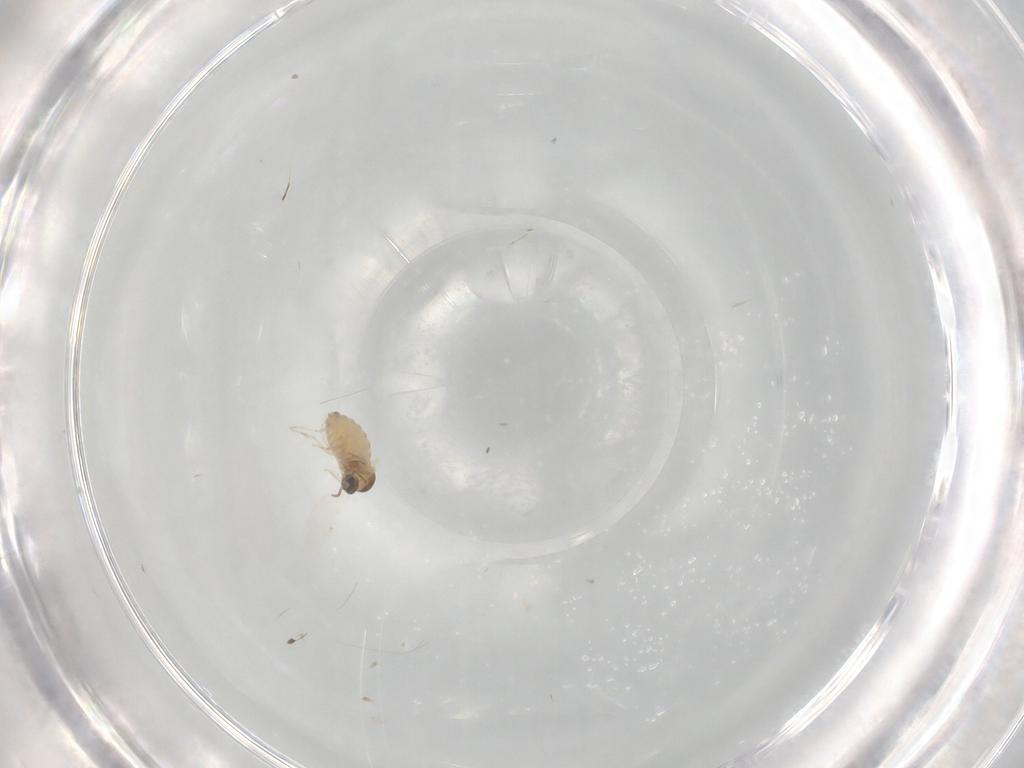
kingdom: Animalia
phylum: Arthropoda
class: Insecta
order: Diptera
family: Cecidomyiidae
